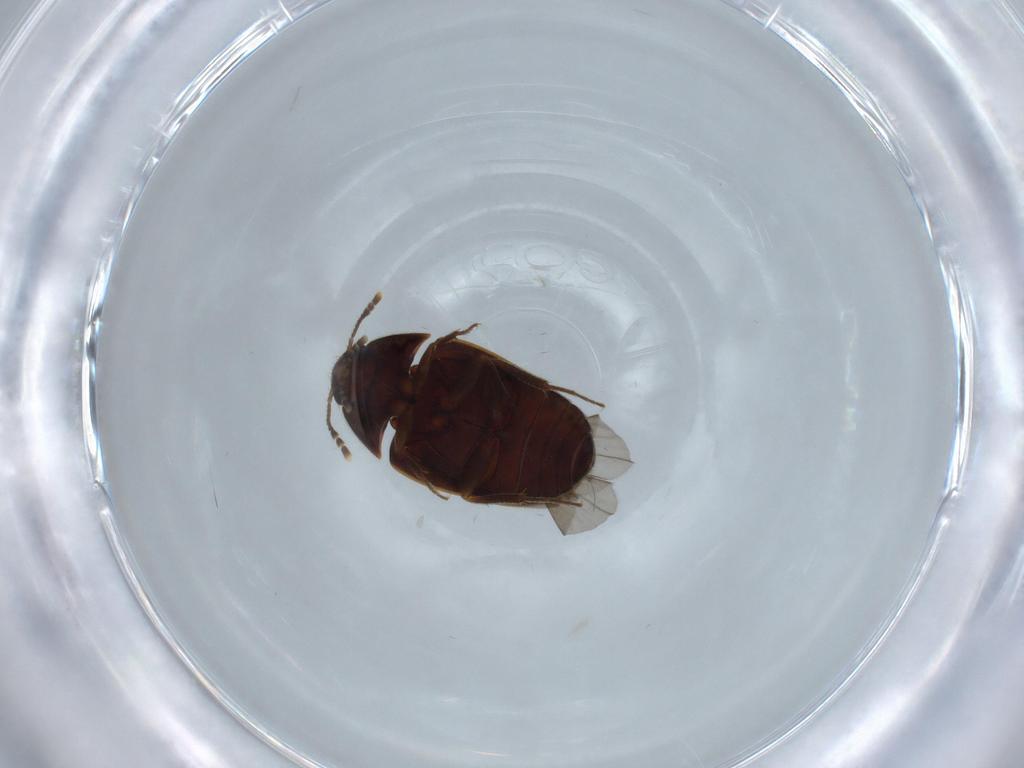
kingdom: Animalia
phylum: Arthropoda
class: Insecta
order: Coleoptera
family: Mycetophagidae
